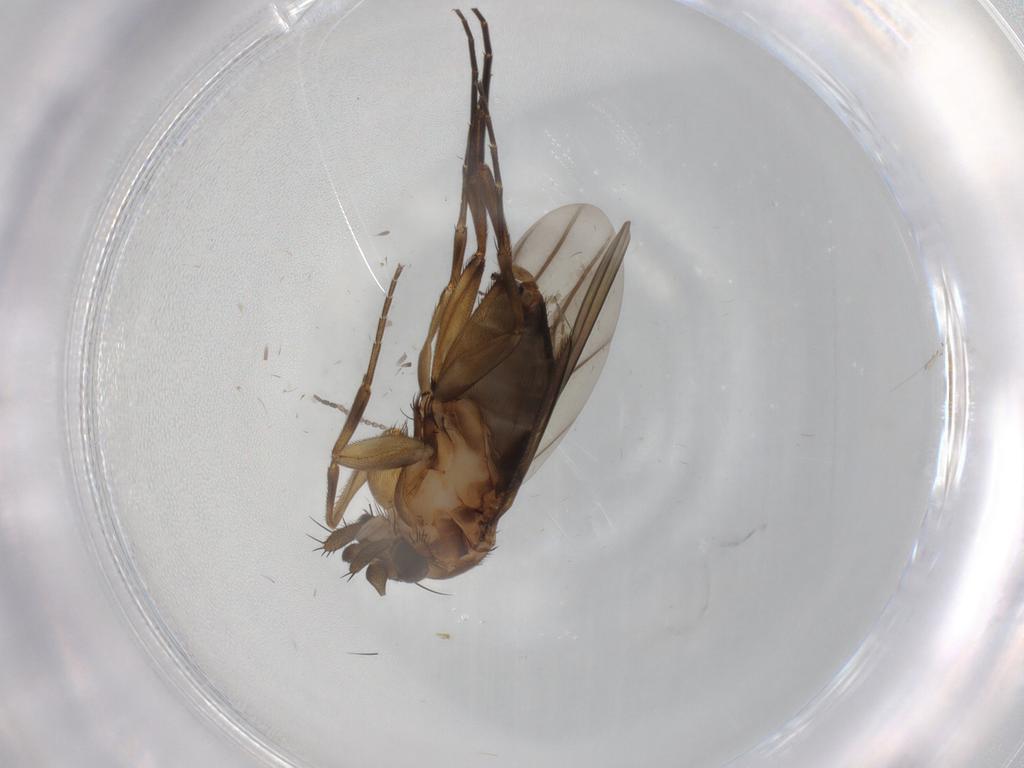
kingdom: Animalia
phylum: Arthropoda
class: Insecta
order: Diptera
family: Phoridae
